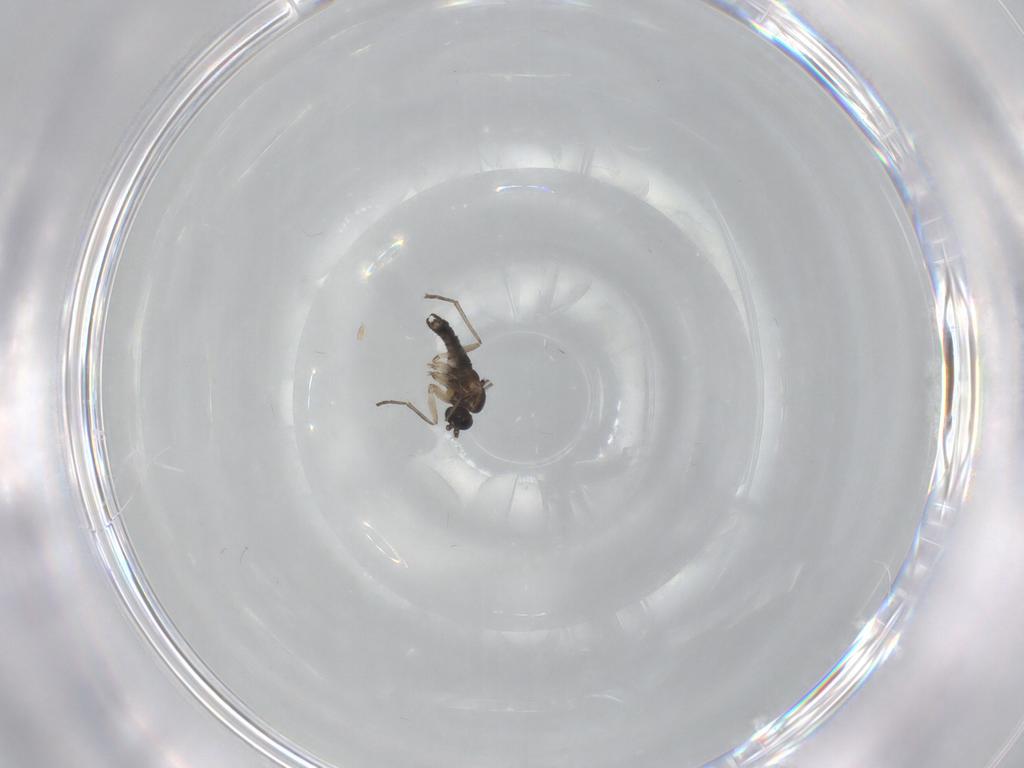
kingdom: Animalia
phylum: Arthropoda
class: Insecta
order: Diptera
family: Sciaridae
